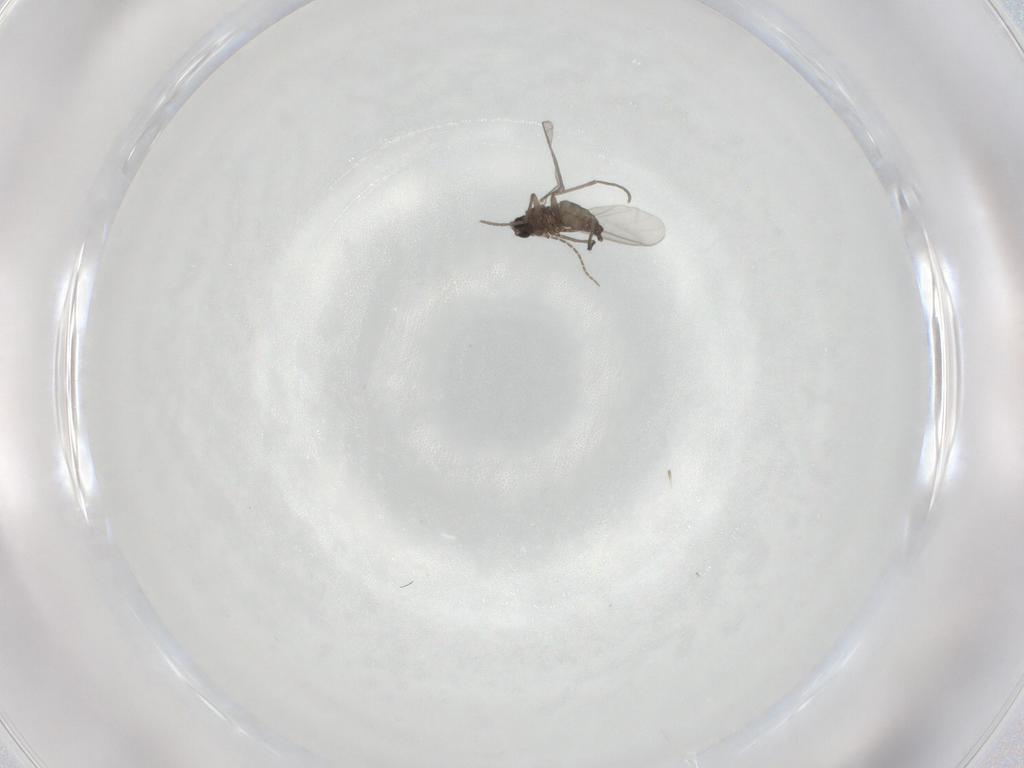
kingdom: Animalia
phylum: Arthropoda
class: Insecta
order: Diptera
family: Sciaridae
